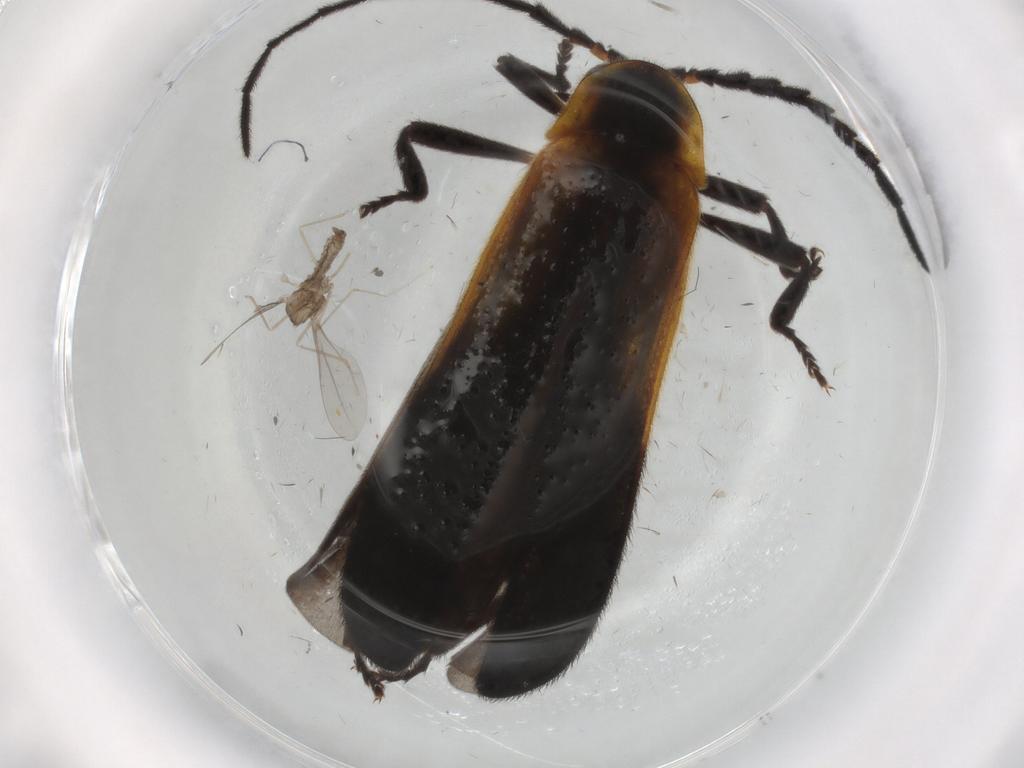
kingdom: Animalia
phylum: Arthropoda
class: Insecta
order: Diptera
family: Cecidomyiidae
